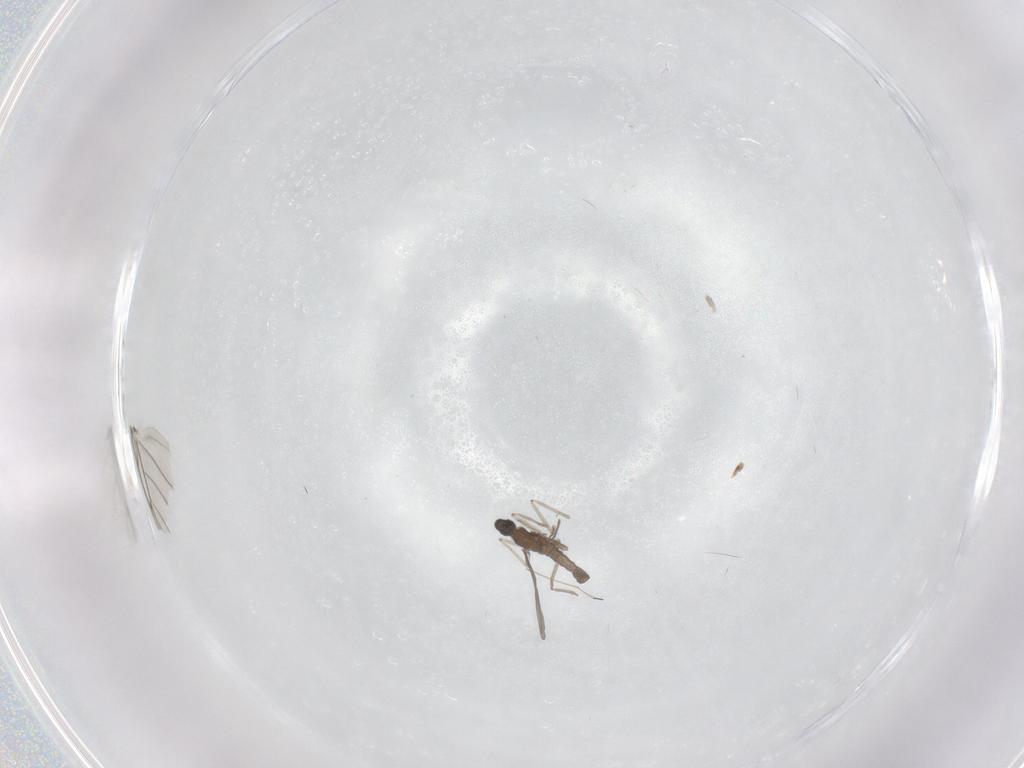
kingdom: Animalia
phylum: Arthropoda
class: Insecta
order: Diptera
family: Cecidomyiidae
